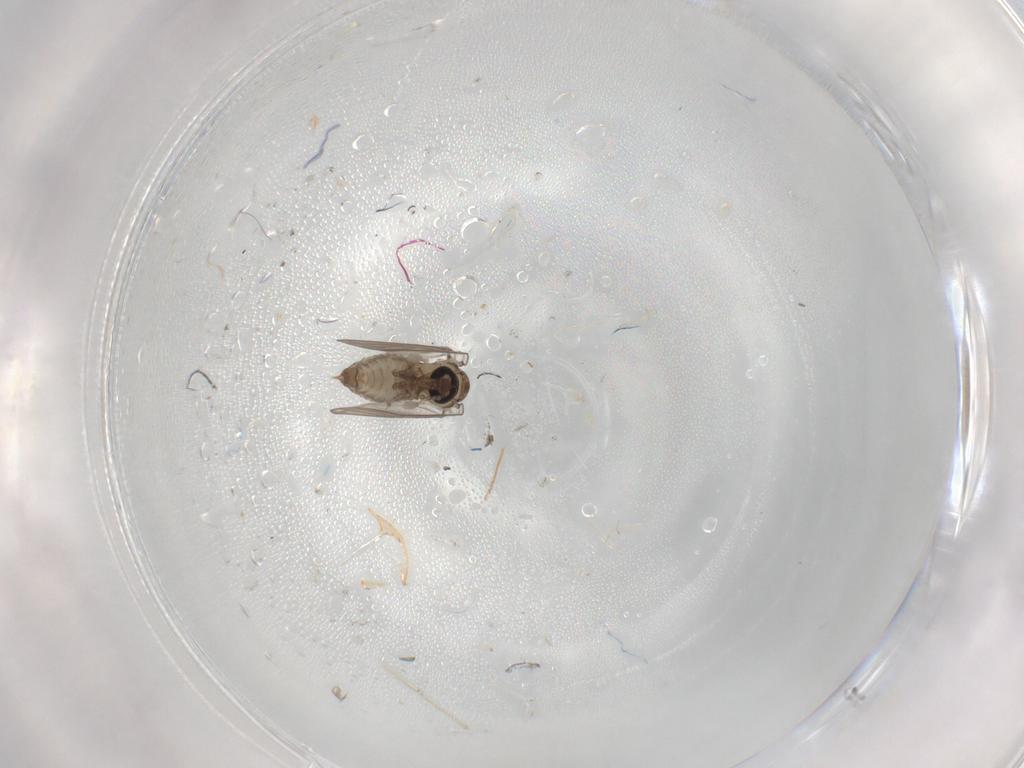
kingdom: Animalia
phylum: Arthropoda
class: Insecta
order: Diptera
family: Psychodidae
